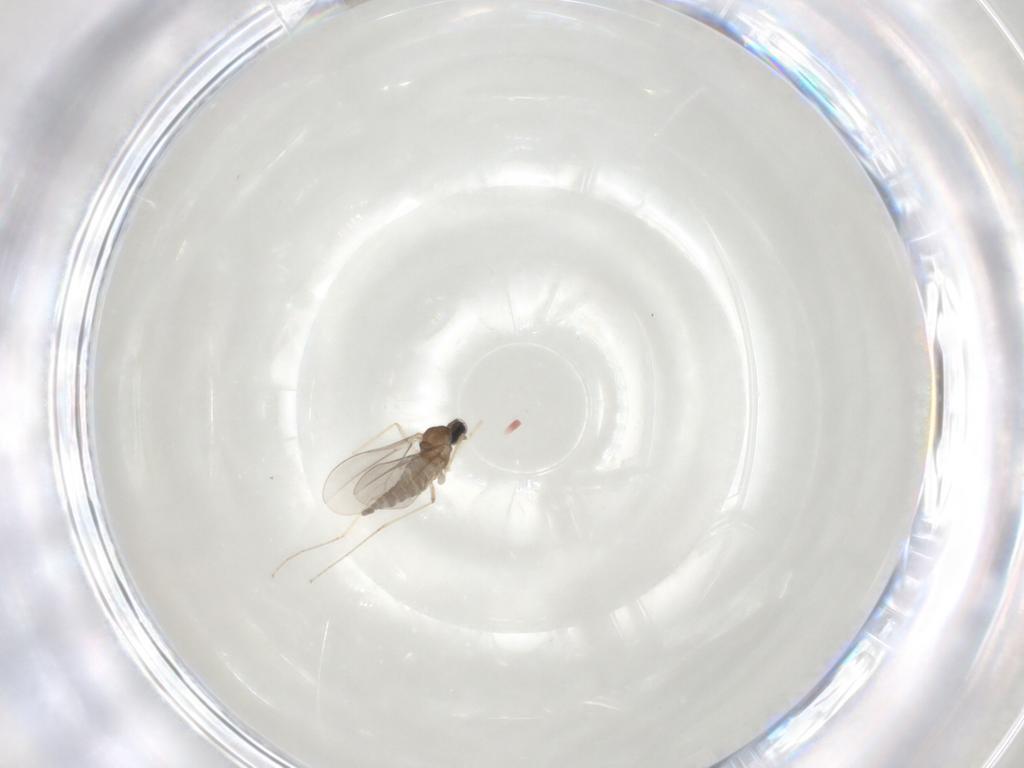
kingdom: Animalia
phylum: Arthropoda
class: Insecta
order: Diptera
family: Cecidomyiidae
